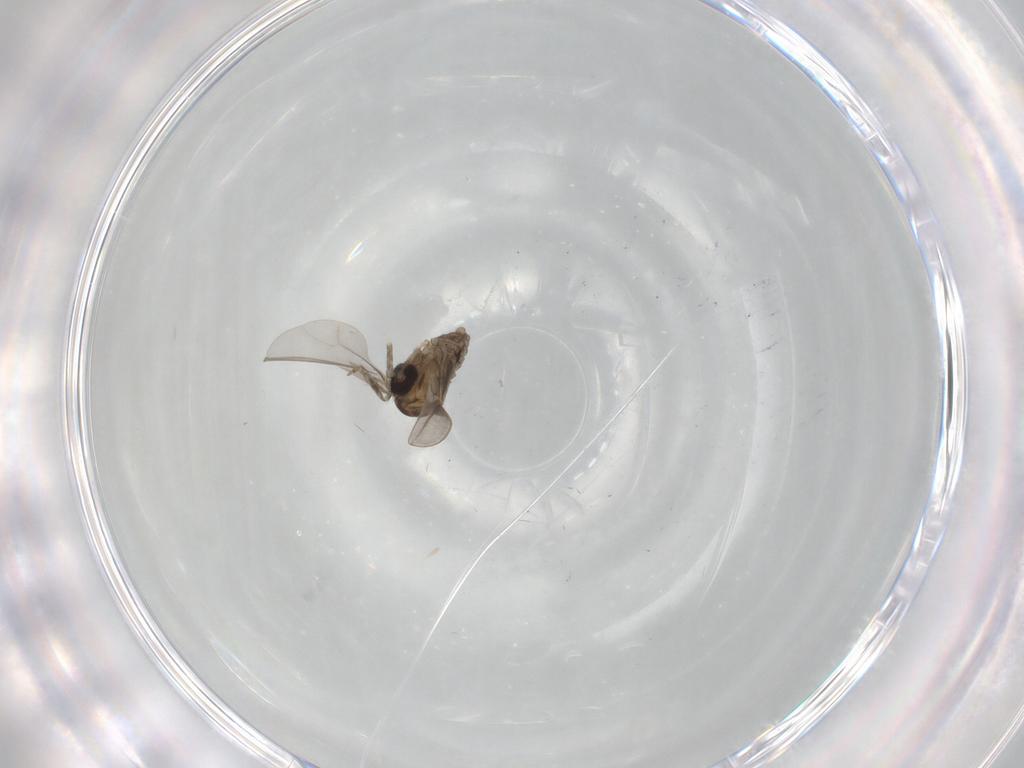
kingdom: Animalia
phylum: Arthropoda
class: Insecta
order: Diptera
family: Cecidomyiidae
